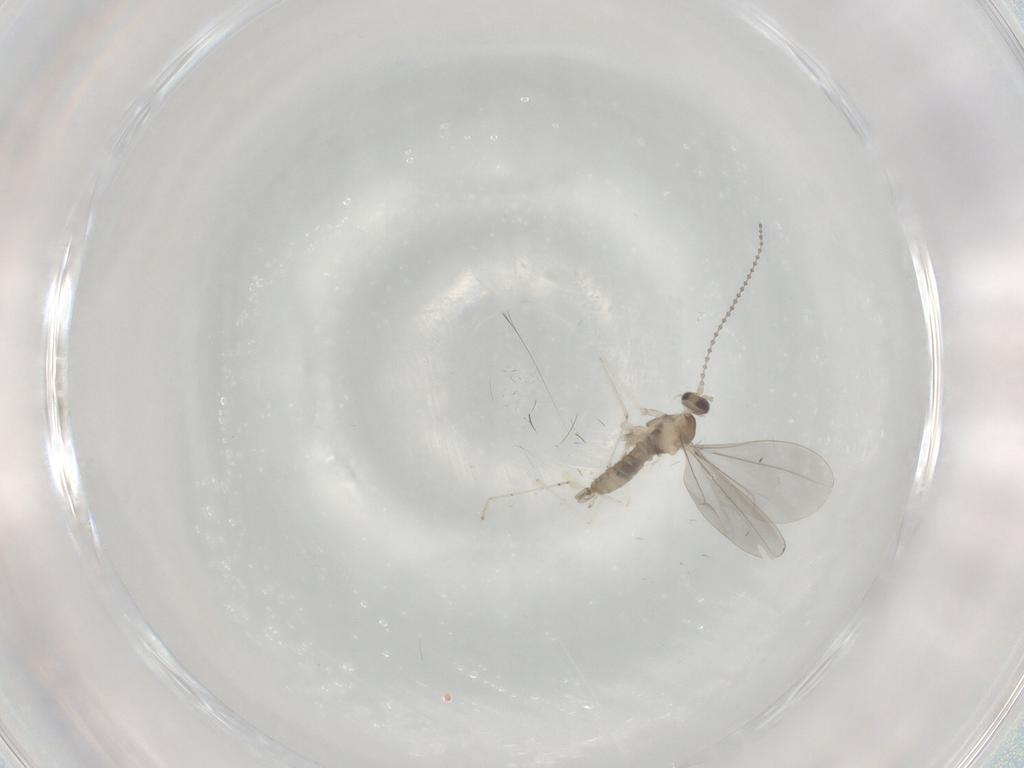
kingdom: Animalia
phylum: Arthropoda
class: Insecta
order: Diptera
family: Cecidomyiidae
